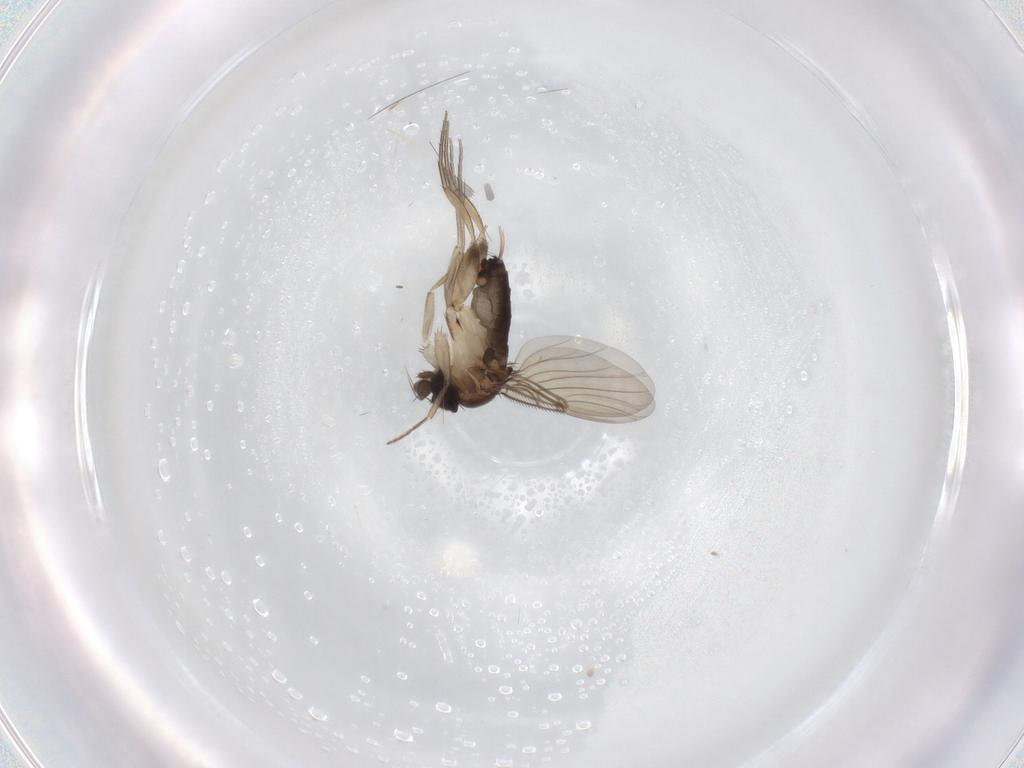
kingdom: Animalia
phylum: Arthropoda
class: Insecta
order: Diptera
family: Phoridae
